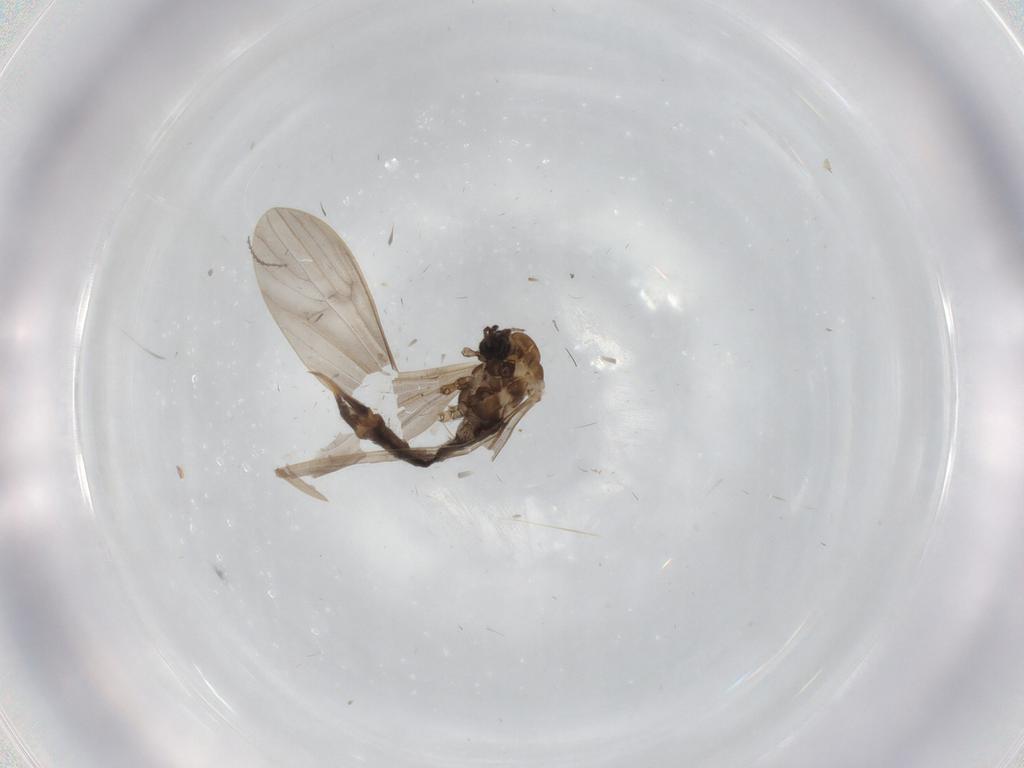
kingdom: Animalia
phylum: Arthropoda
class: Insecta
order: Diptera
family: Limoniidae
